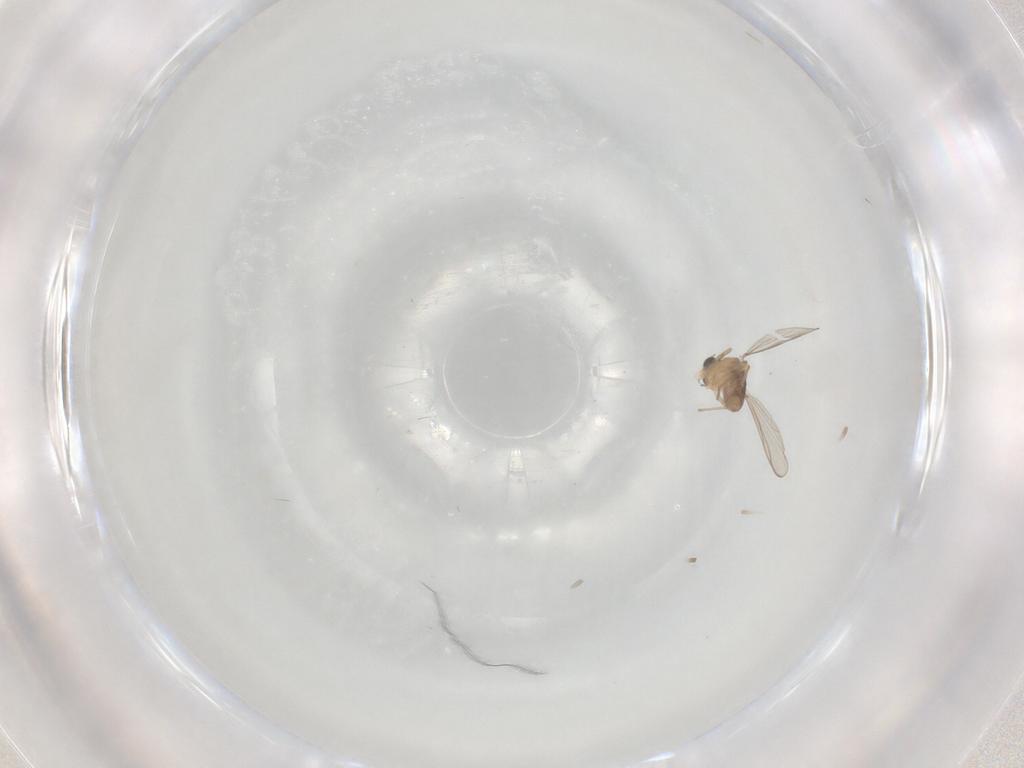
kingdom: Animalia
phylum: Arthropoda
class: Insecta
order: Diptera
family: Chironomidae
